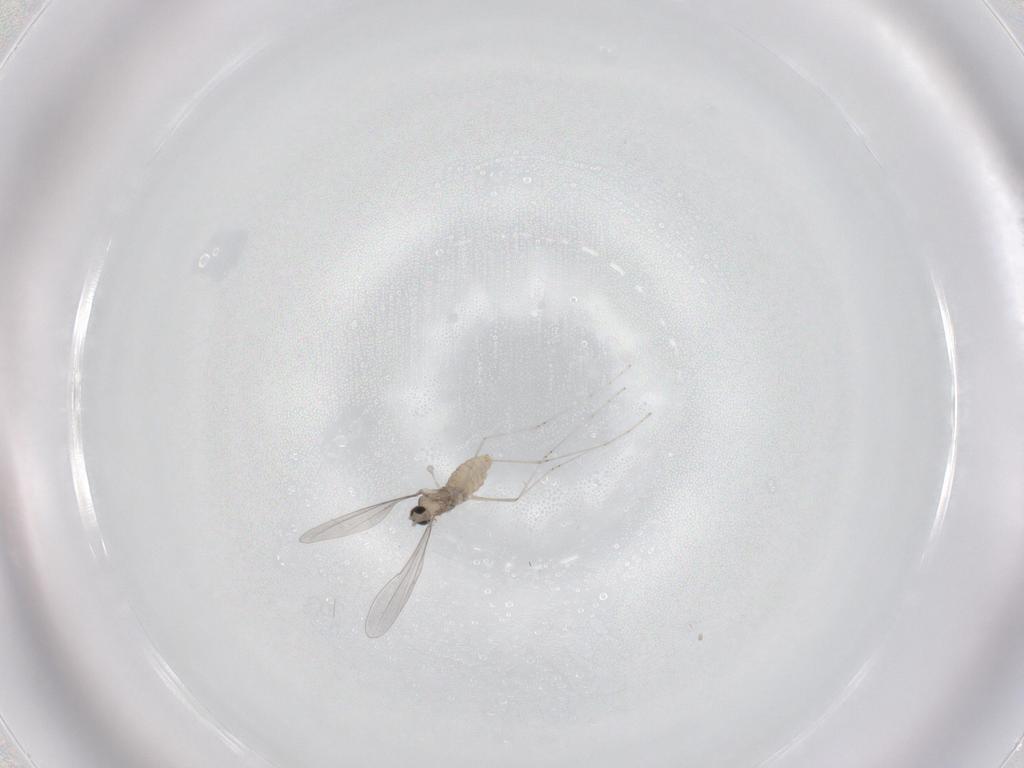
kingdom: Animalia
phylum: Arthropoda
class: Insecta
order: Diptera
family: Cecidomyiidae
